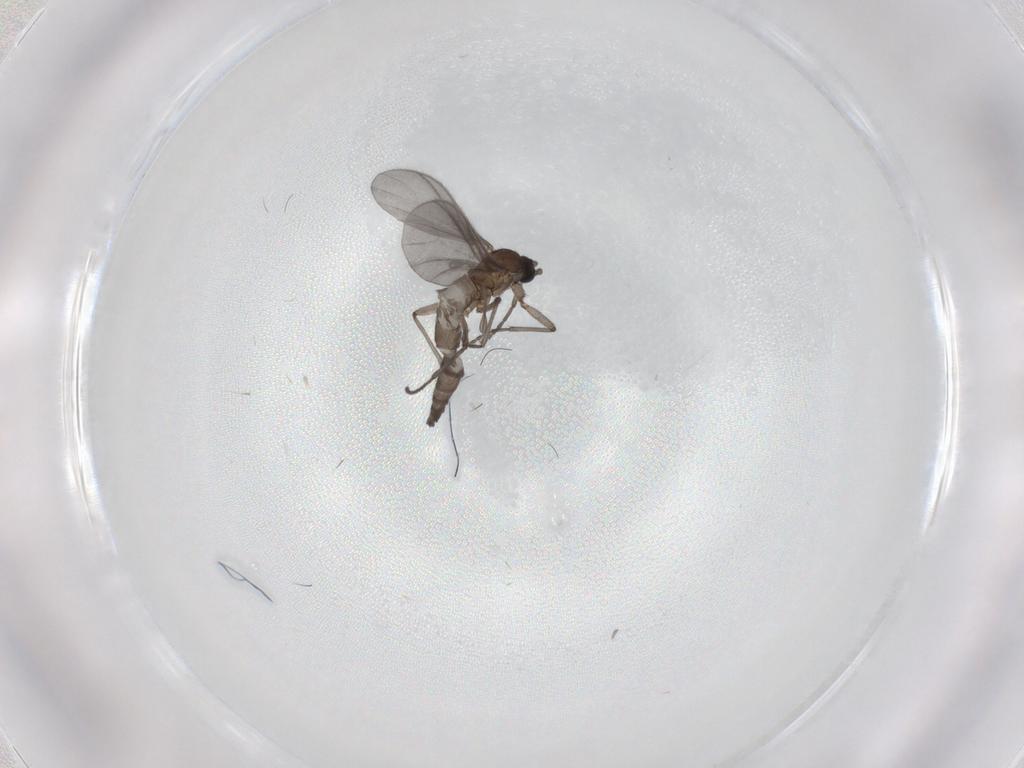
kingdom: Animalia
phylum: Arthropoda
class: Insecta
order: Diptera
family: Sciaridae
